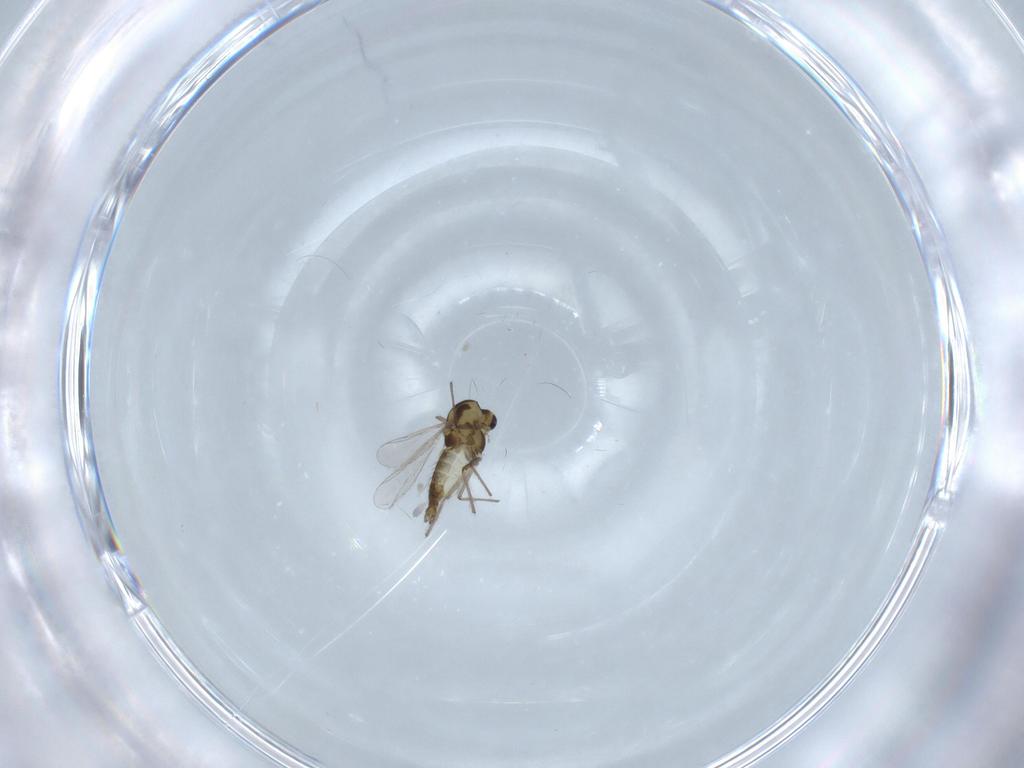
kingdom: Animalia
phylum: Arthropoda
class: Insecta
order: Diptera
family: Chironomidae
